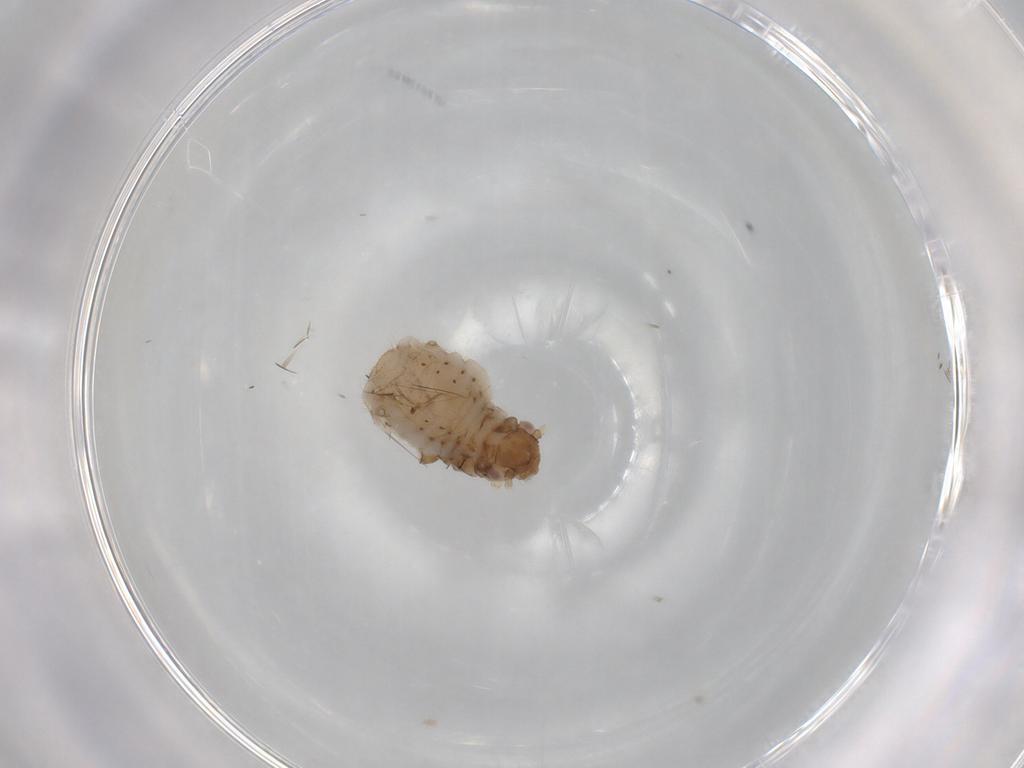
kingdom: Animalia
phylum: Arthropoda
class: Insecta
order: Hemiptera
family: Aphididae
